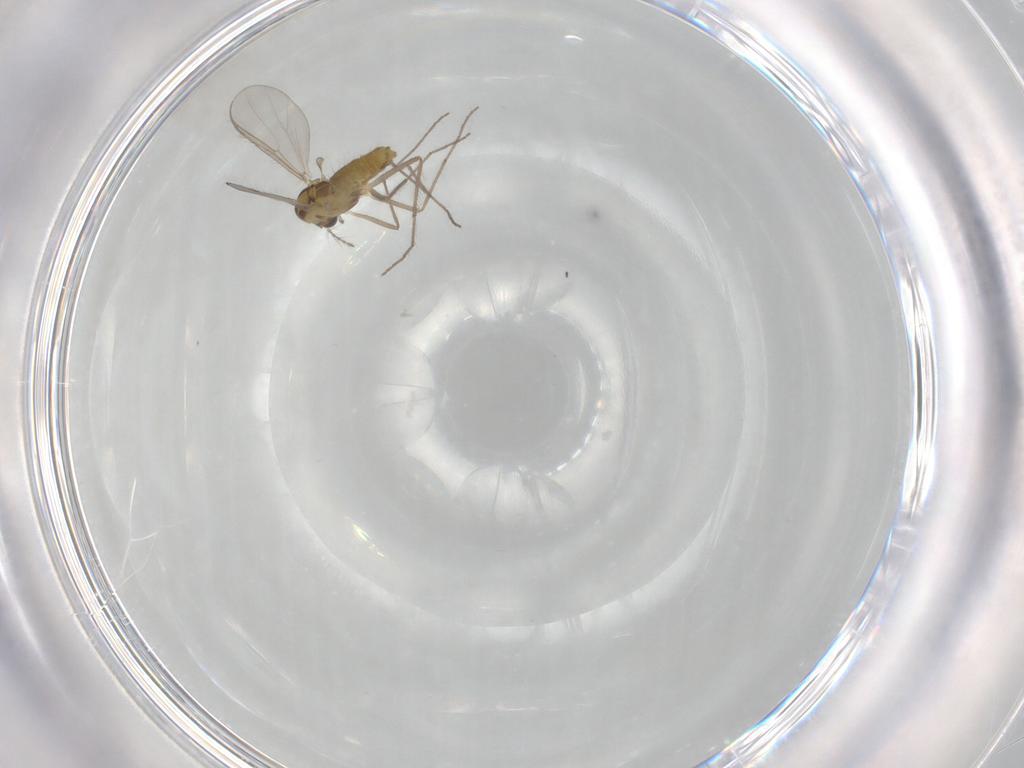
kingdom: Animalia
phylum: Arthropoda
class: Insecta
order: Diptera
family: Chironomidae
